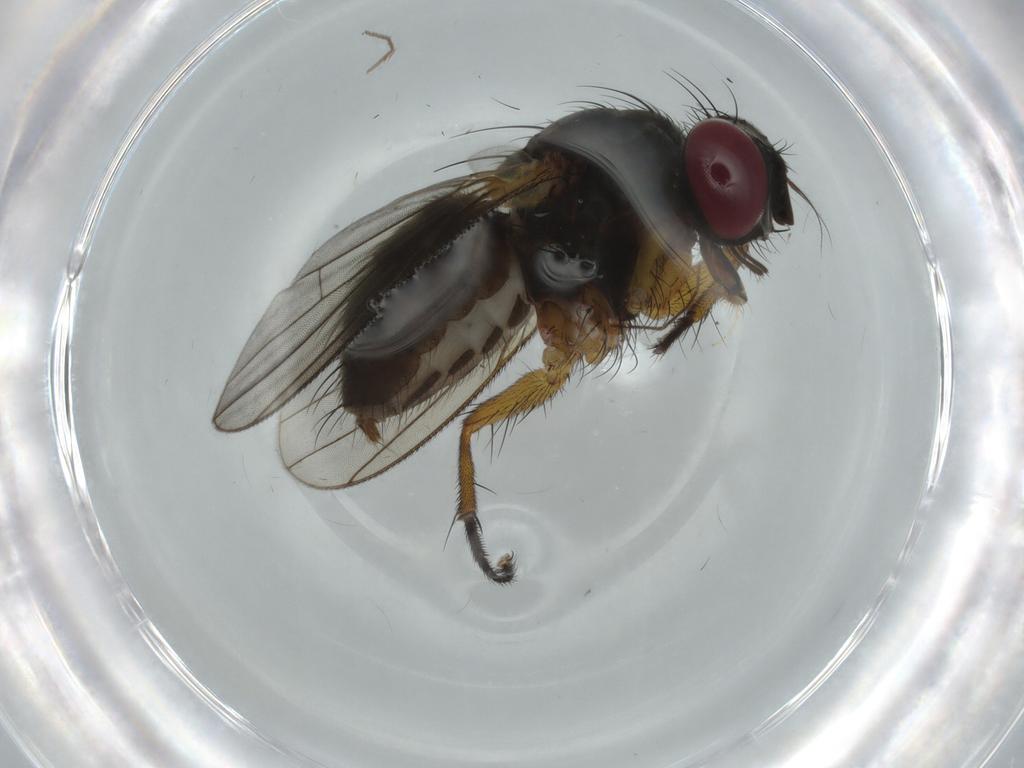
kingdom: Animalia
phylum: Arthropoda
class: Insecta
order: Diptera
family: Muscidae
